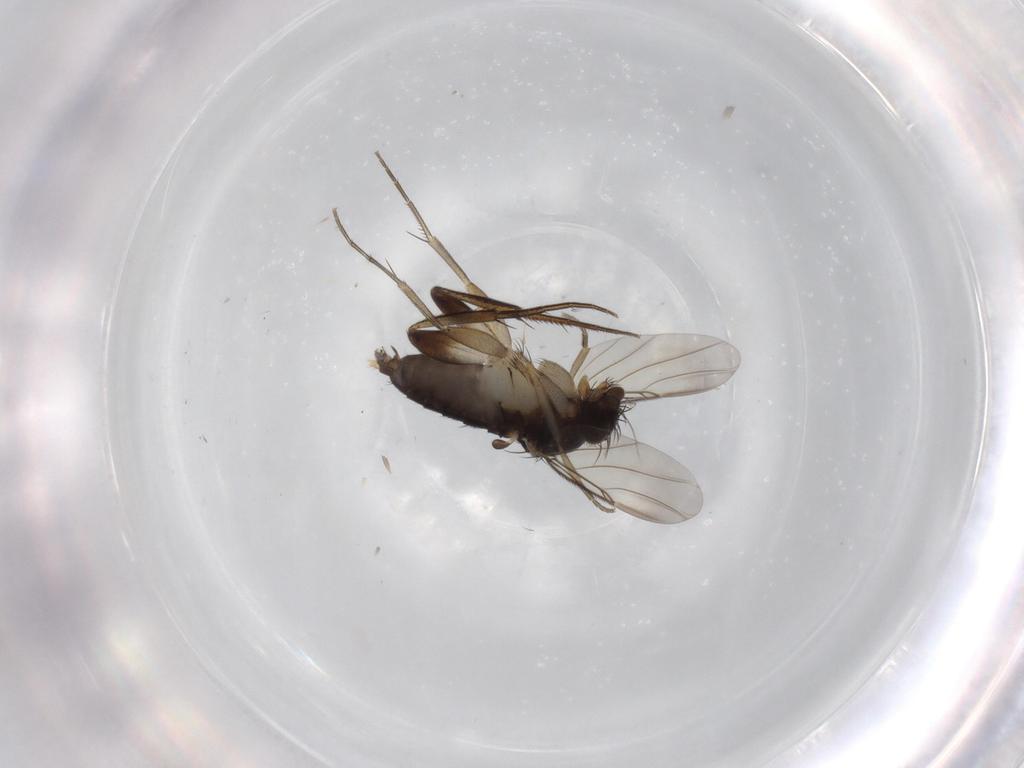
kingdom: Animalia
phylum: Arthropoda
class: Insecta
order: Diptera
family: Phoridae
